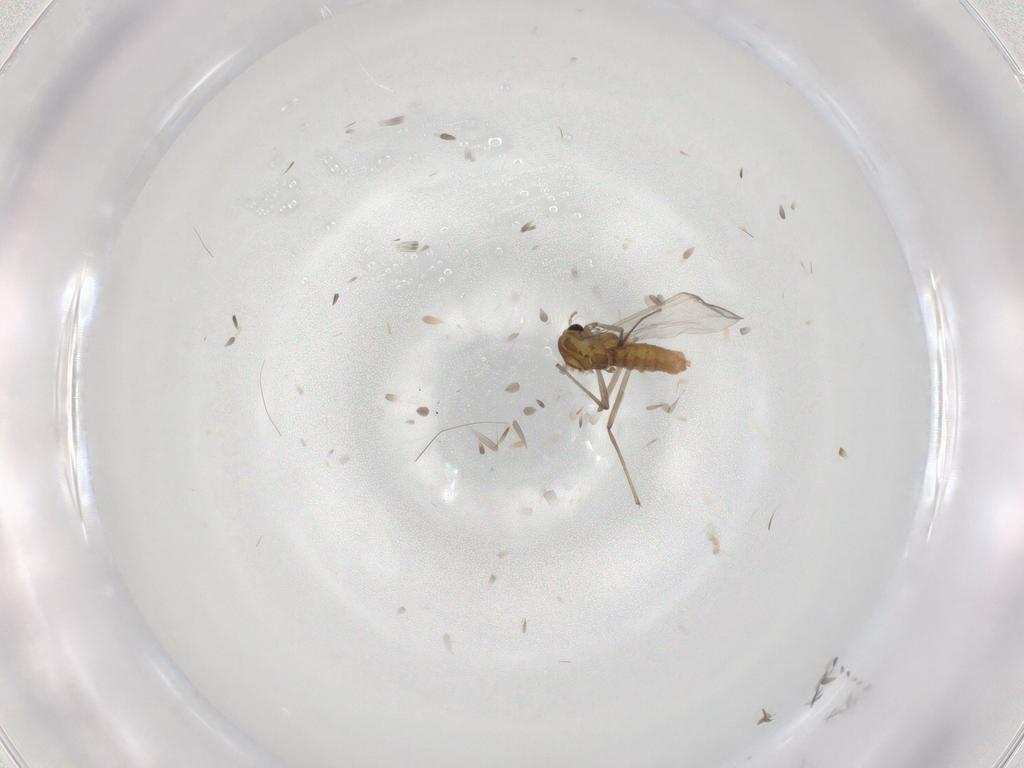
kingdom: Animalia
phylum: Arthropoda
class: Insecta
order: Diptera
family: Chironomidae
